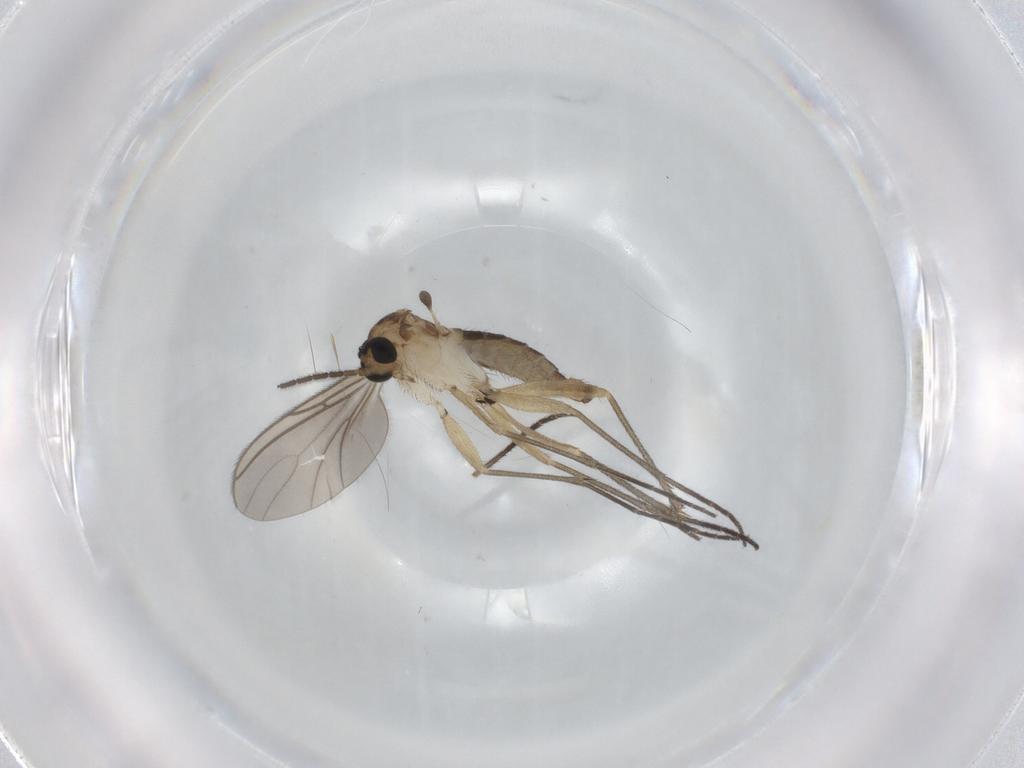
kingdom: Animalia
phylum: Arthropoda
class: Insecta
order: Diptera
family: Sciaridae
